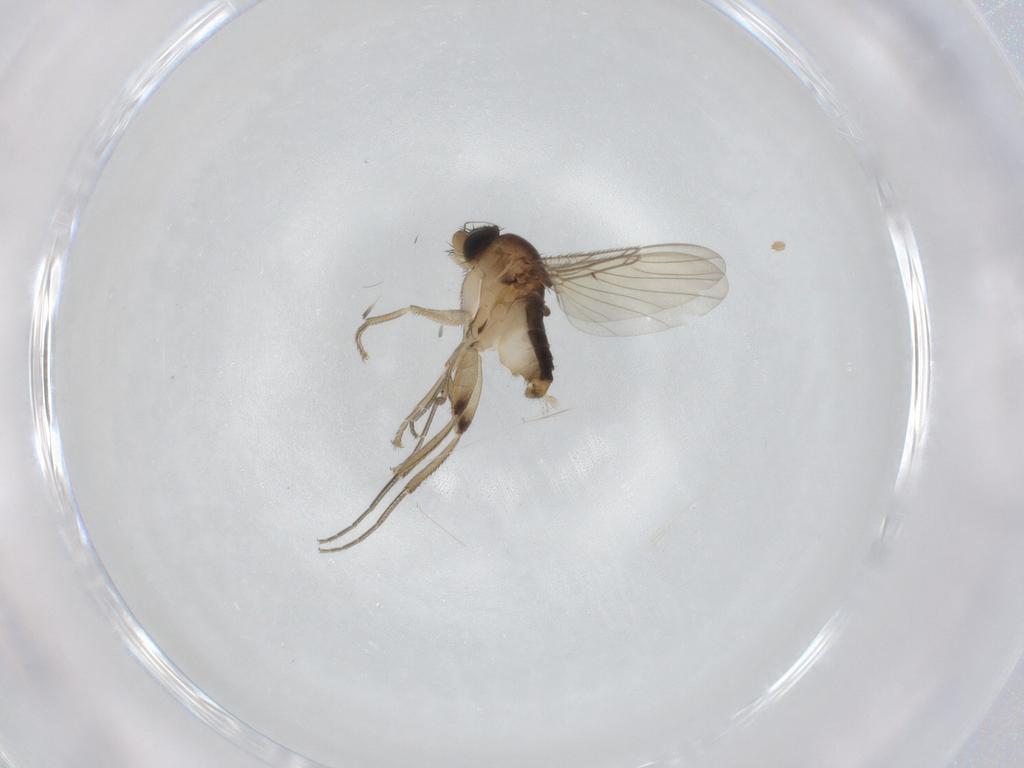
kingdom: Animalia
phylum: Arthropoda
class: Insecta
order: Diptera
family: Phoridae
